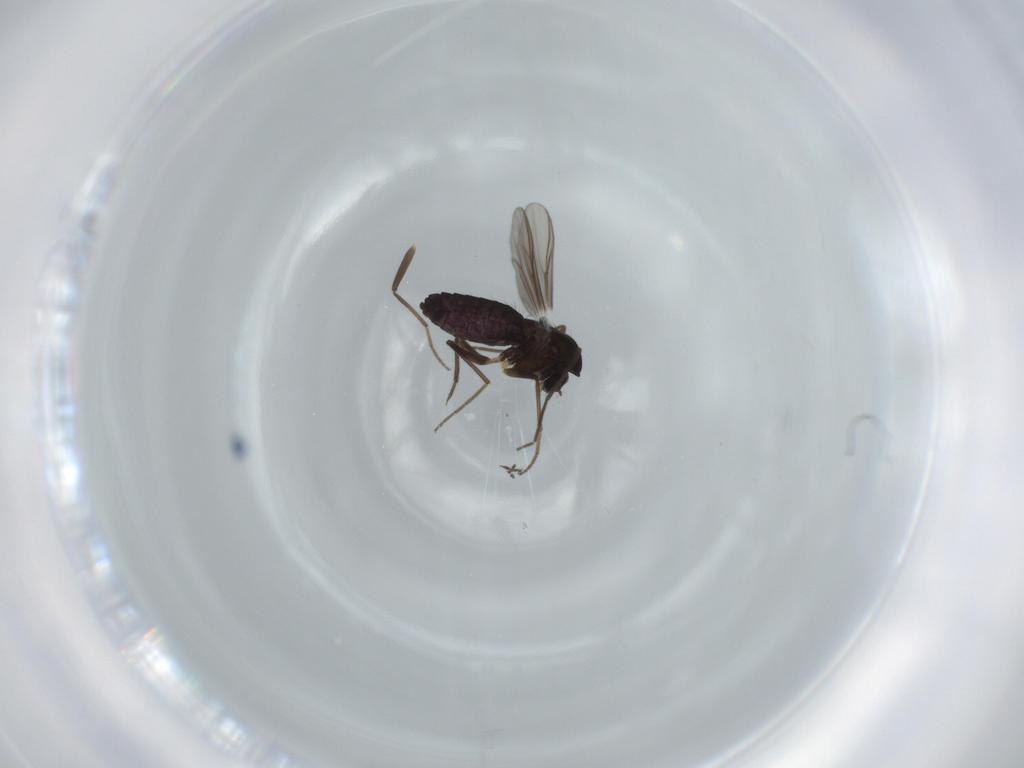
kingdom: Animalia
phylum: Arthropoda
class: Insecta
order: Diptera
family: Chironomidae
